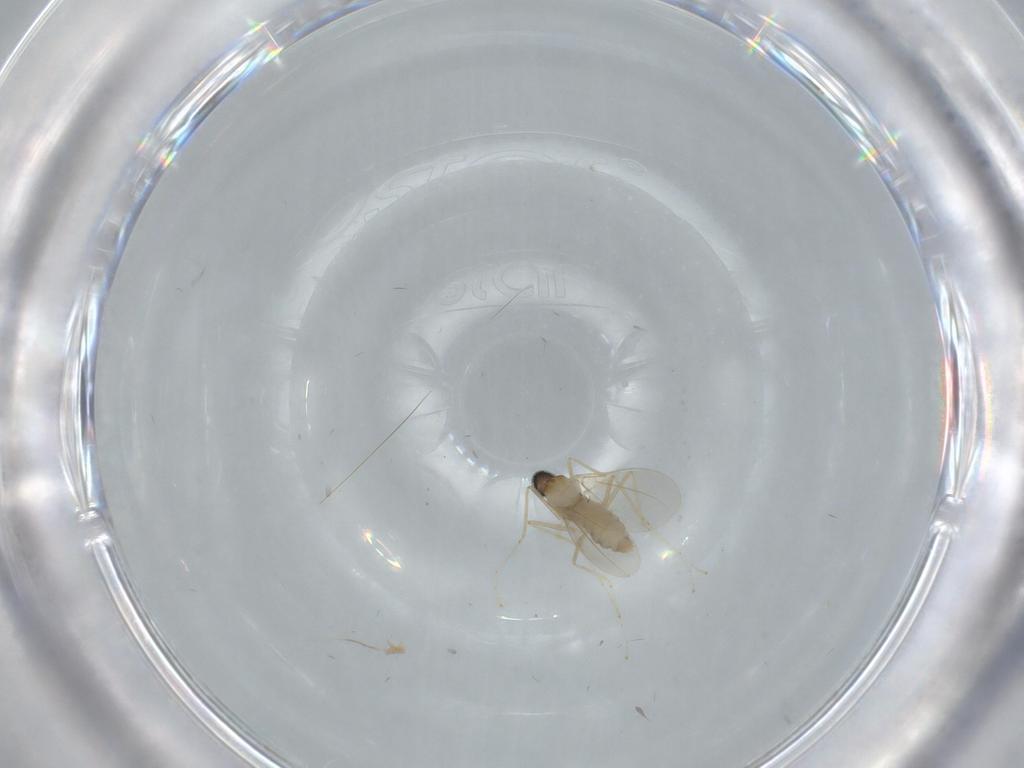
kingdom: Animalia
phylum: Arthropoda
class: Insecta
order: Diptera
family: Cecidomyiidae
